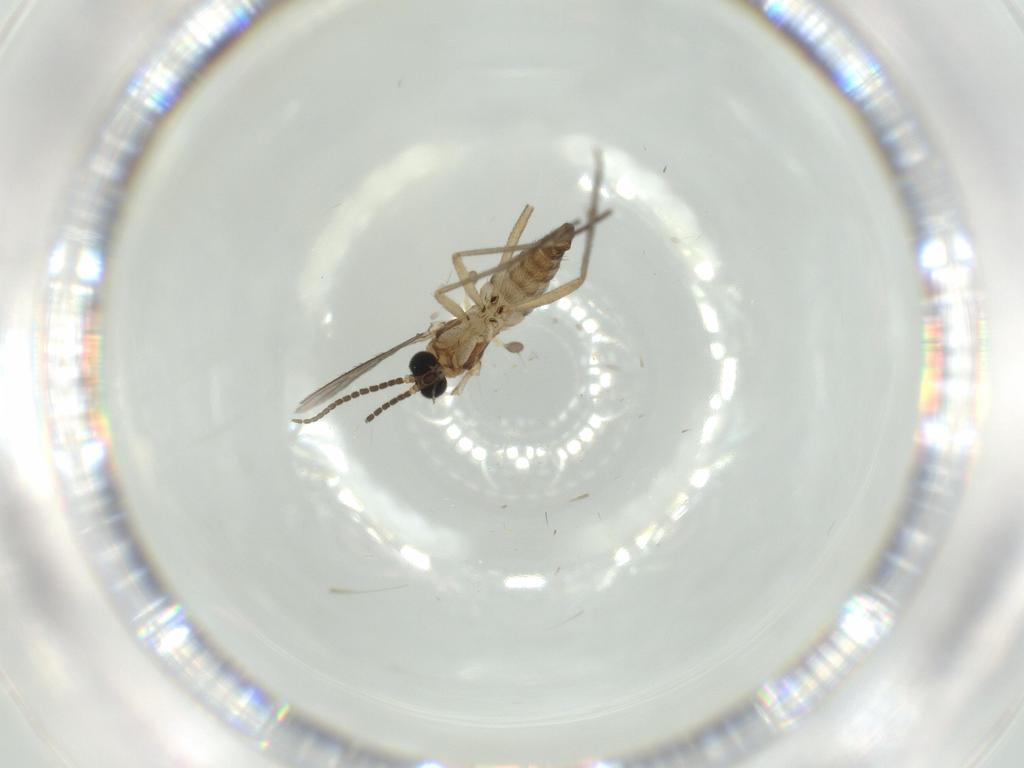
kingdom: Animalia
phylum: Arthropoda
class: Insecta
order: Diptera
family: Sciaridae
